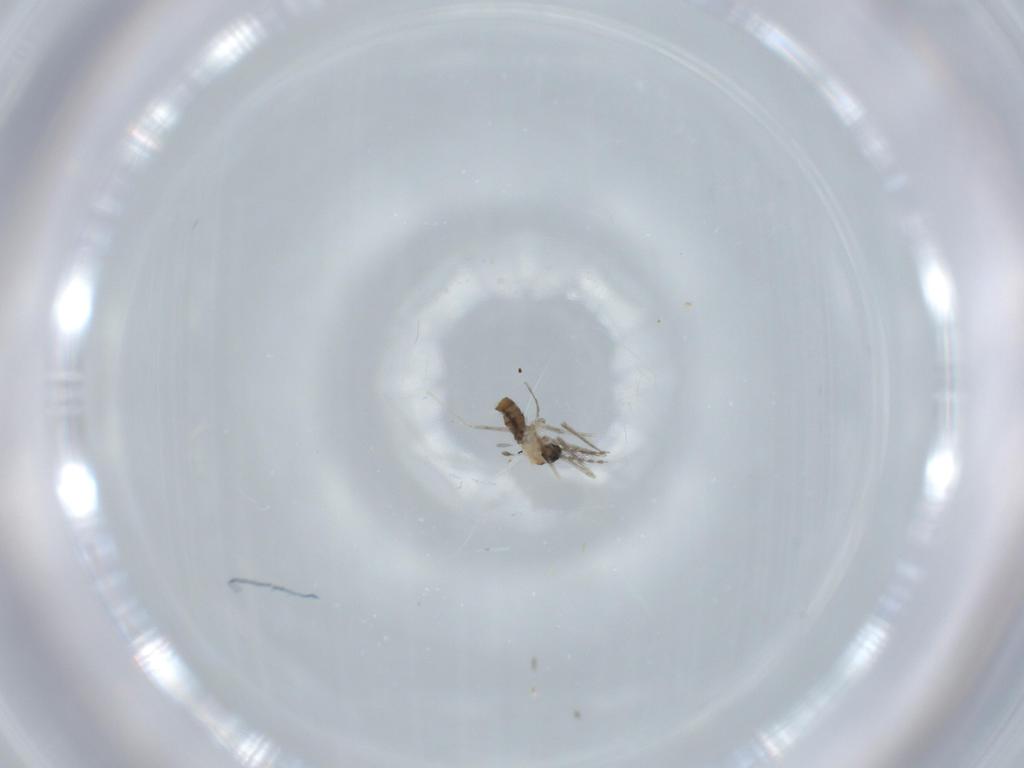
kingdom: Animalia
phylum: Arthropoda
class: Insecta
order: Diptera
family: Cecidomyiidae
